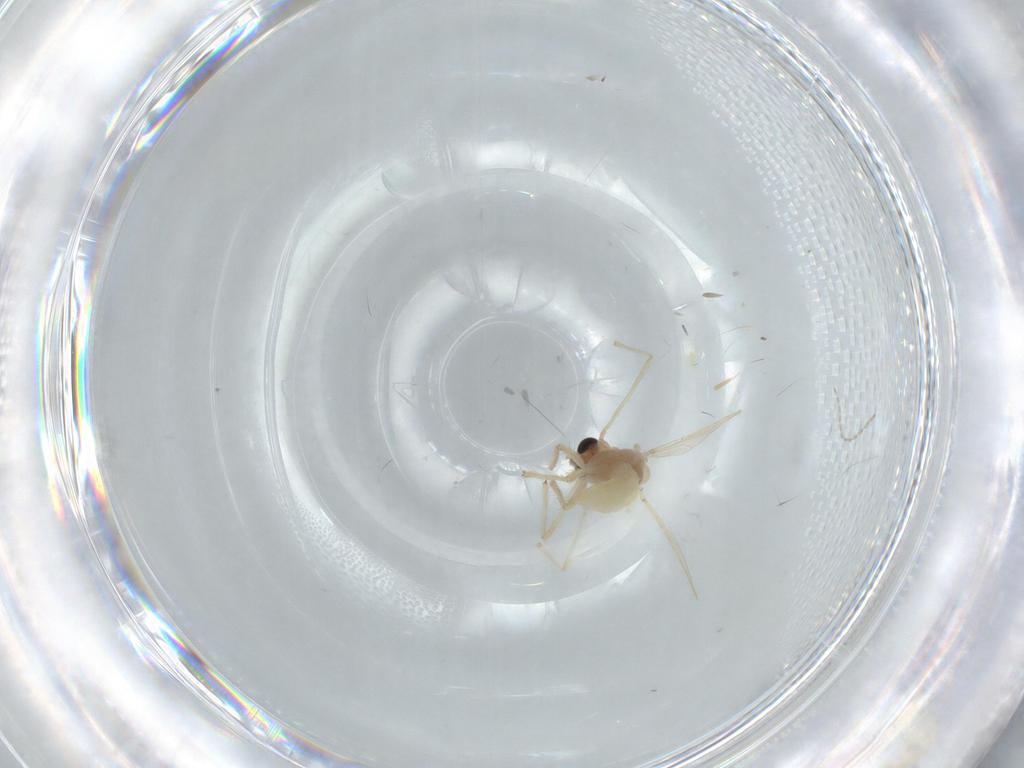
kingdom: Animalia
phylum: Arthropoda
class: Insecta
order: Diptera
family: Chironomidae
